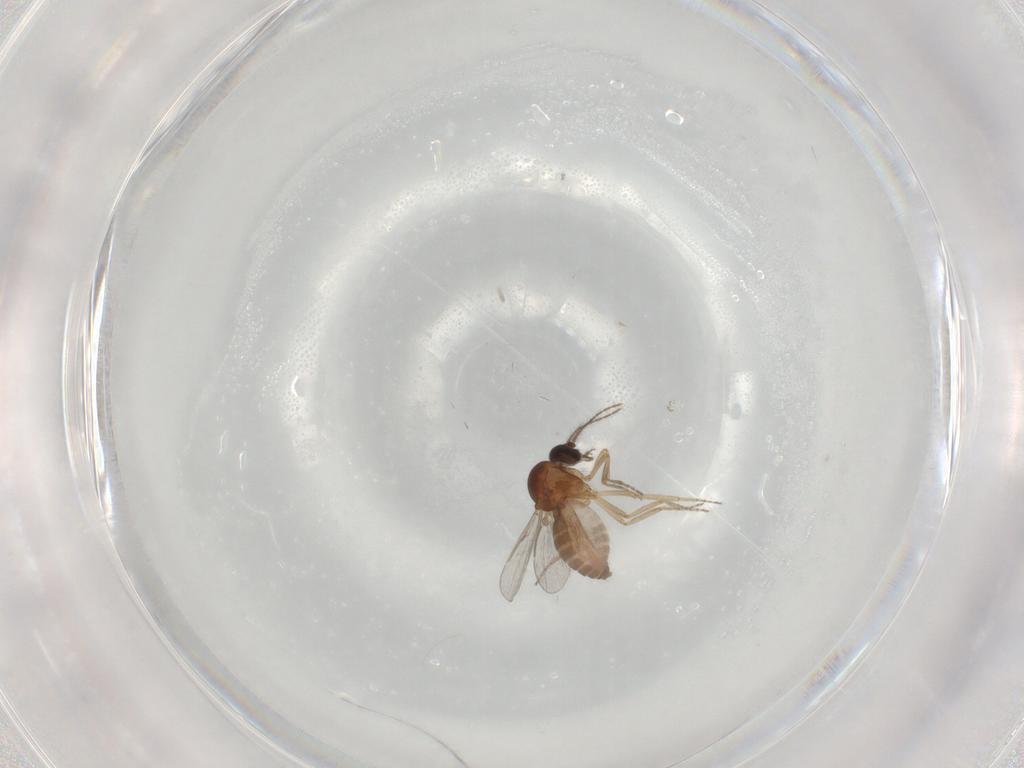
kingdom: Animalia
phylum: Arthropoda
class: Insecta
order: Diptera
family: Ceratopogonidae
